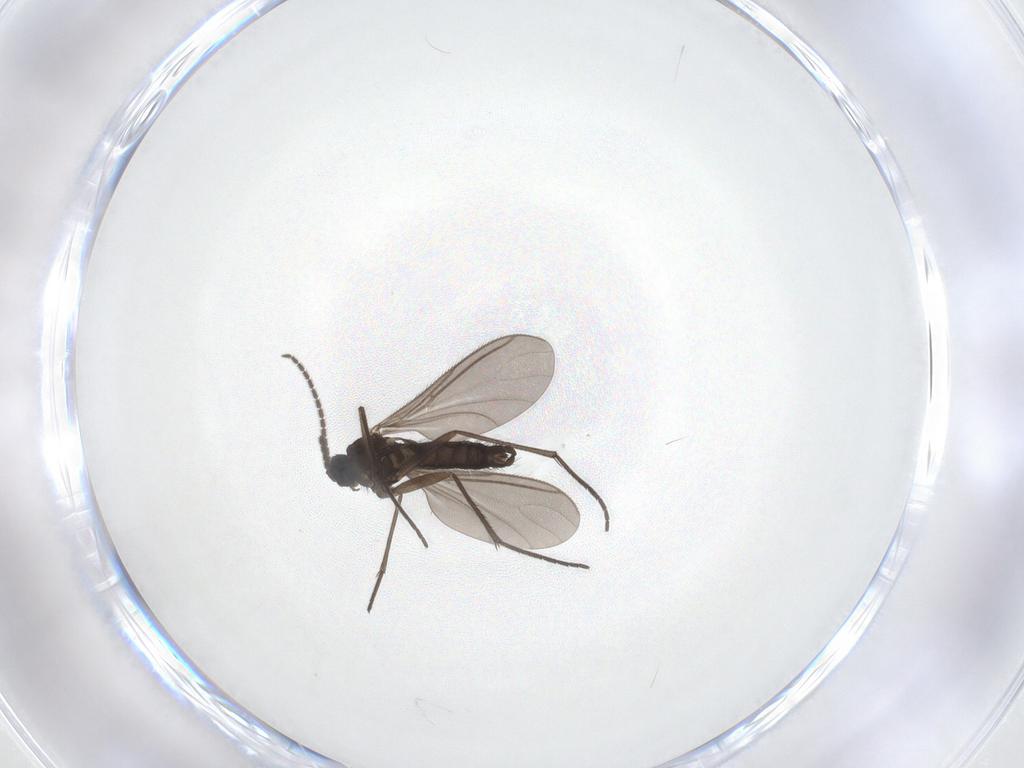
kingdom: Animalia
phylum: Arthropoda
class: Insecta
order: Diptera
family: Sciaridae
